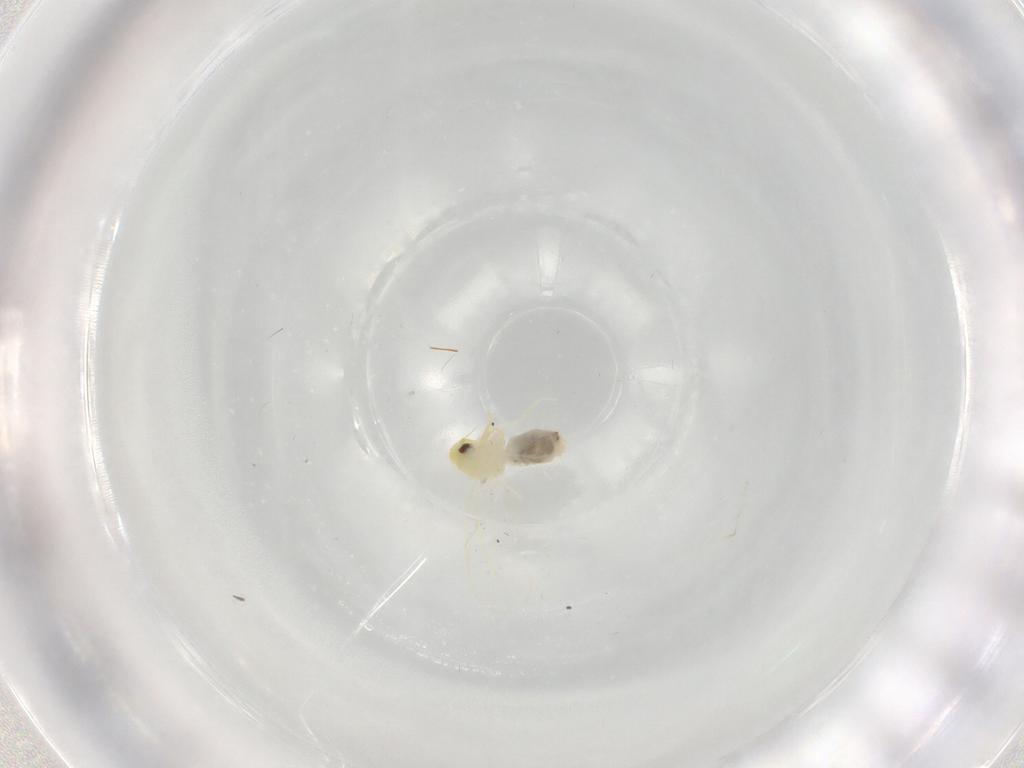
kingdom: Animalia
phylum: Arthropoda
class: Insecta
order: Hemiptera
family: Aleyrodidae
